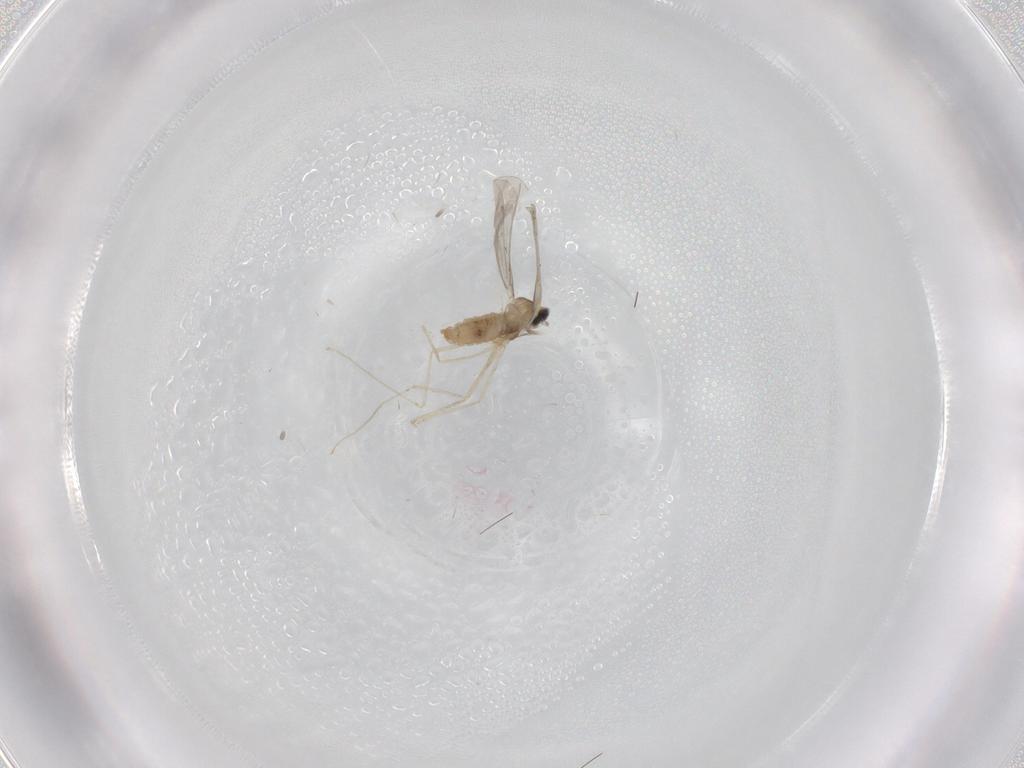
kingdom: Animalia
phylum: Arthropoda
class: Insecta
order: Diptera
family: Cecidomyiidae
